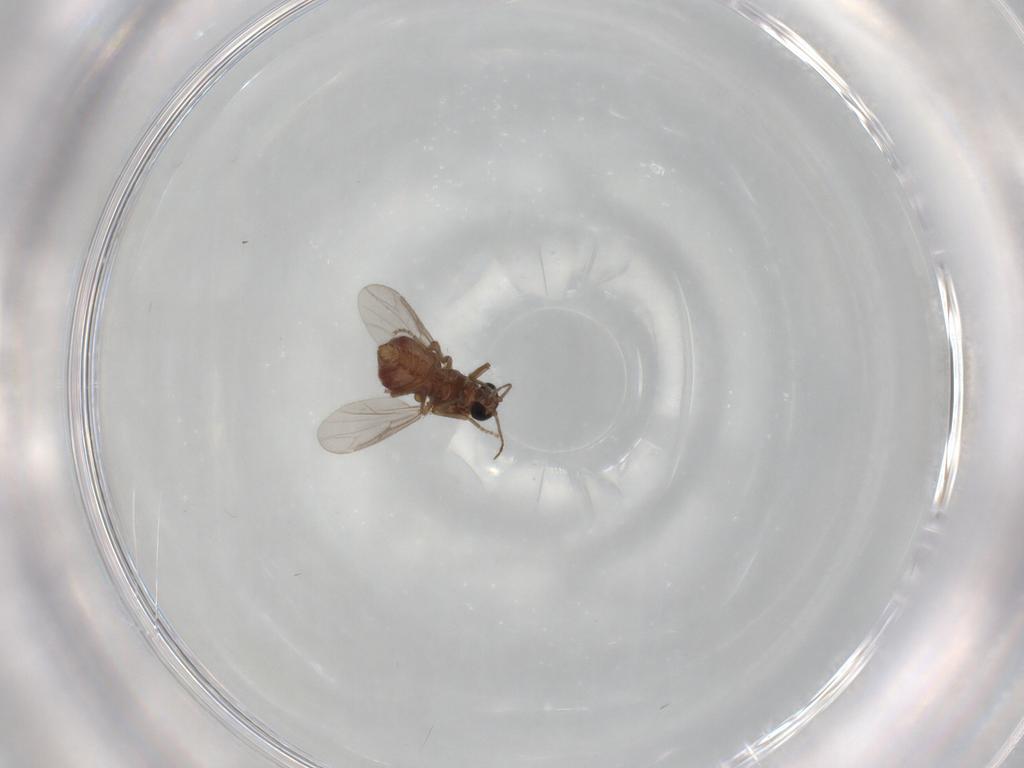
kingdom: Animalia
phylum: Arthropoda
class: Insecta
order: Diptera
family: Ceratopogonidae
